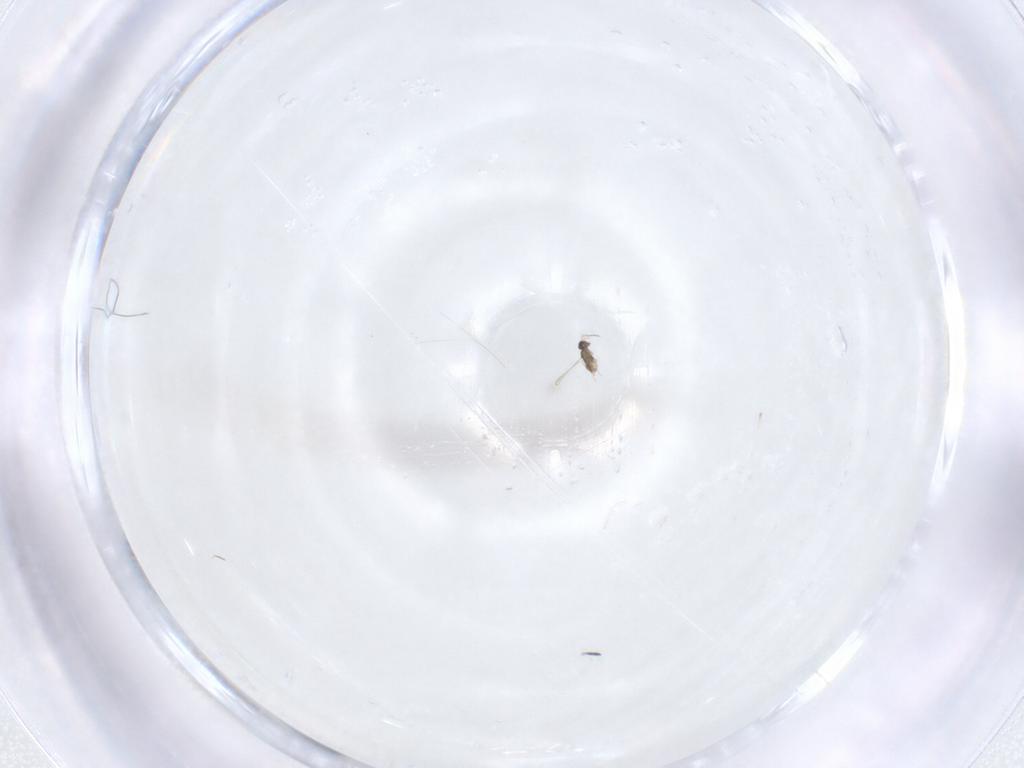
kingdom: Animalia
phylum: Arthropoda
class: Insecta
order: Hymenoptera
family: Mymaridae
